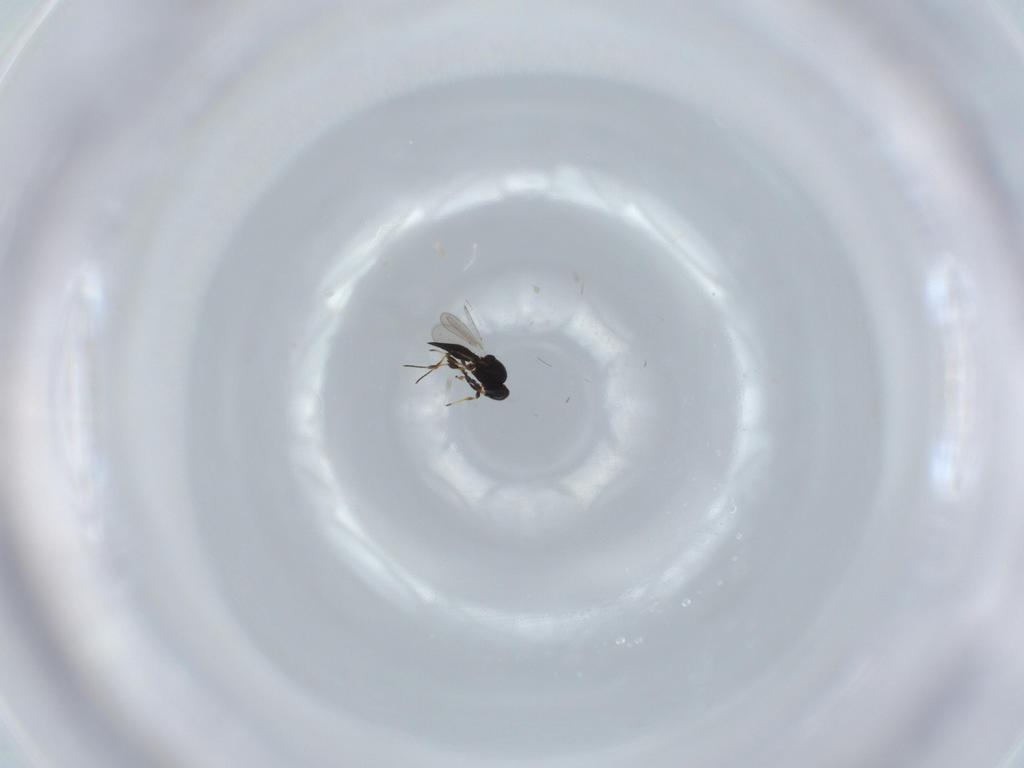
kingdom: Animalia
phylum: Arthropoda
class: Insecta
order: Hymenoptera
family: Platygastridae
